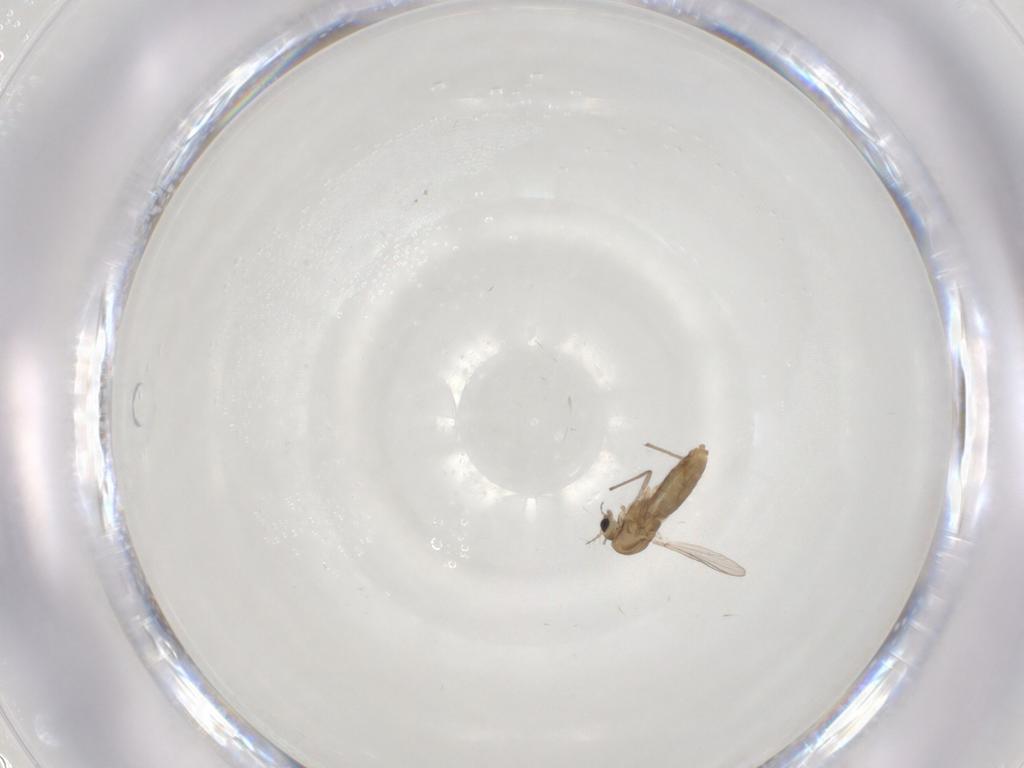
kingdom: Animalia
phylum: Arthropoda
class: Insecta
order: Diptera
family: Chironomidae
